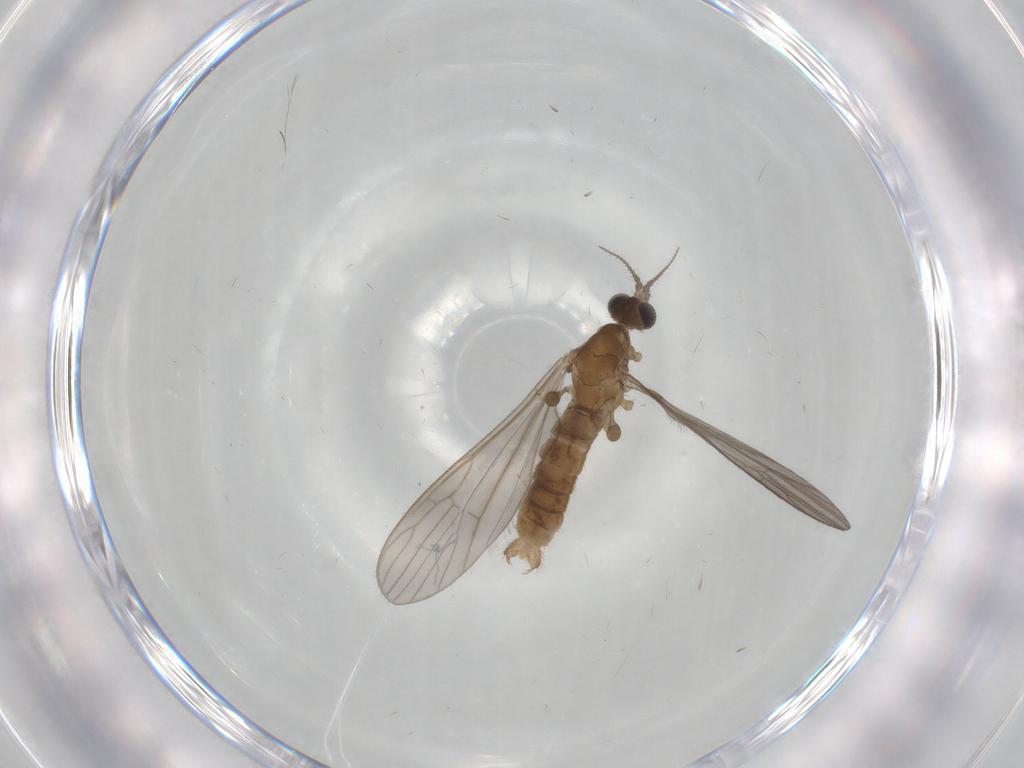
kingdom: Animalia
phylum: Arthropoda
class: Insecta
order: Diptera
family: Limoniidae
